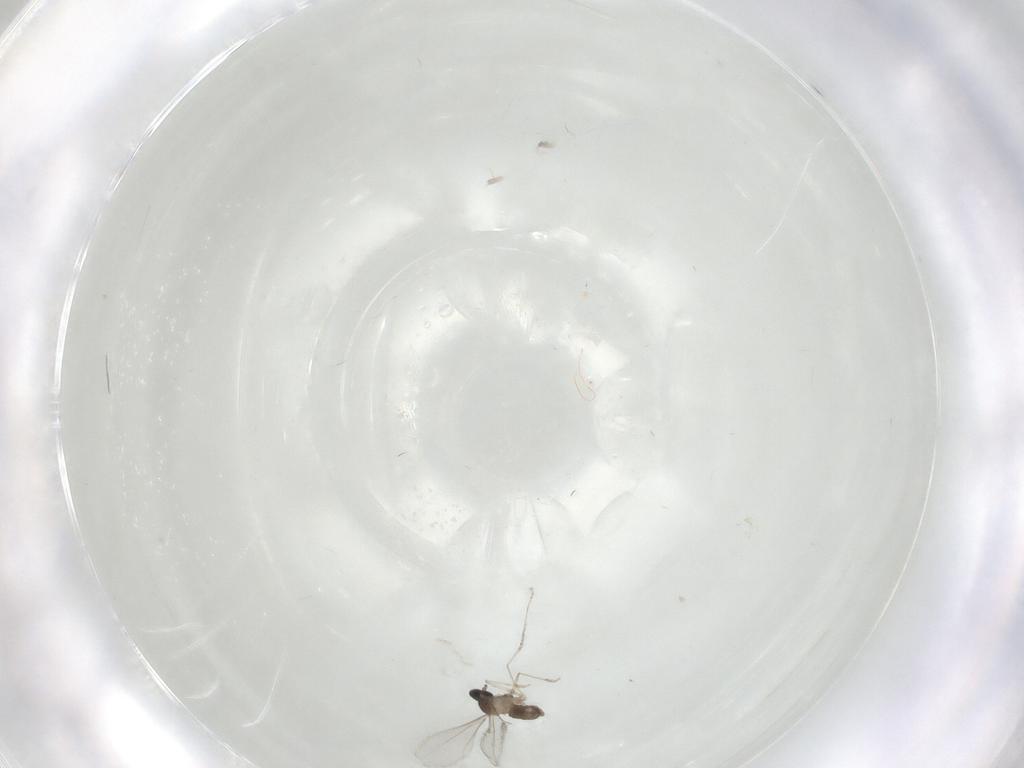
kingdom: Animalia
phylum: Arthropoda
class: Insecta
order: Diptera
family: Cecidomyiidae
